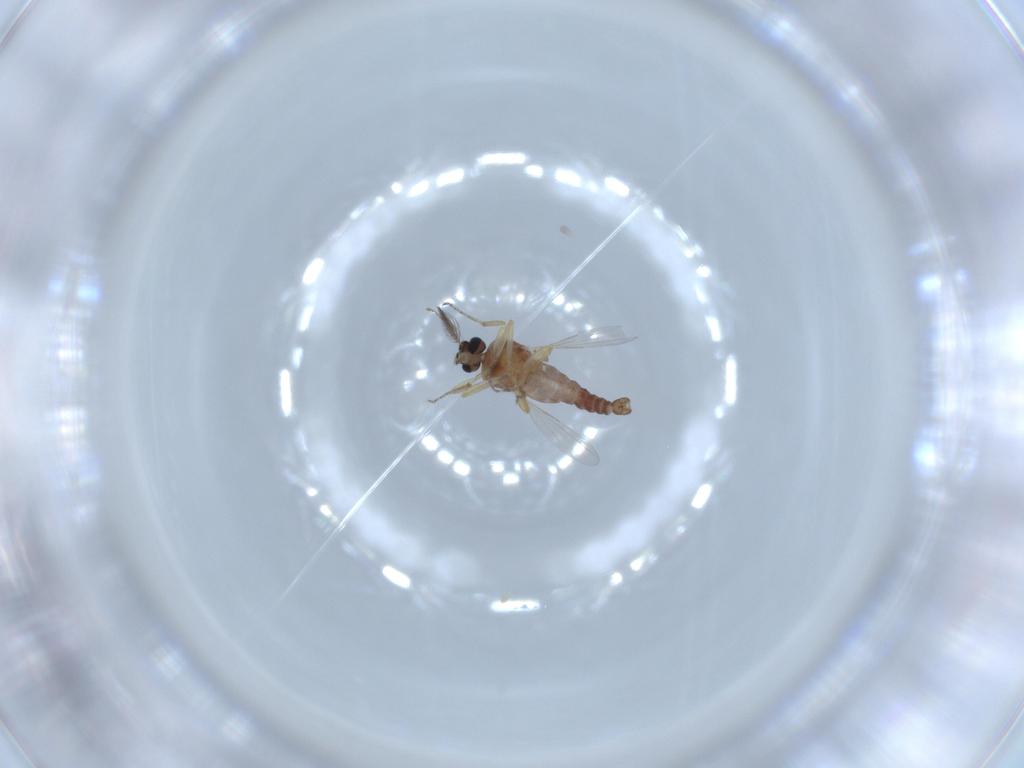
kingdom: Animalia
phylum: Arthropoda
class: Insecta
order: Diptera
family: Ceratopogonidae
